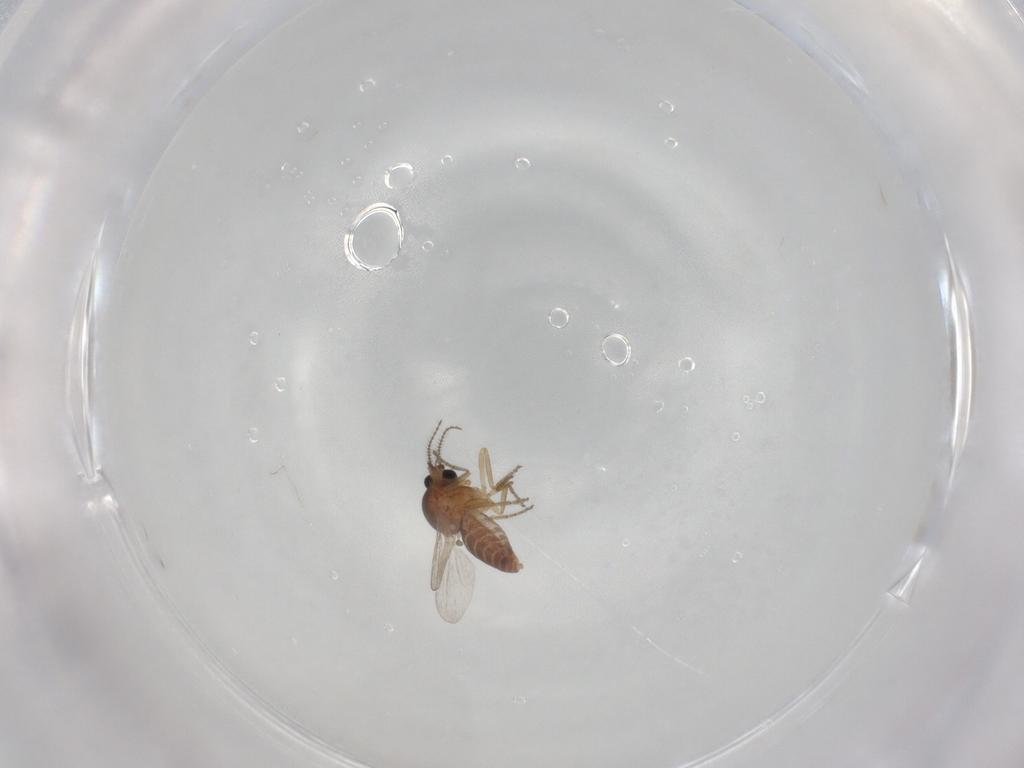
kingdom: Animalia
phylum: Arthropoda
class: Insecta
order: Diptera
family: Ceratopogonidae
